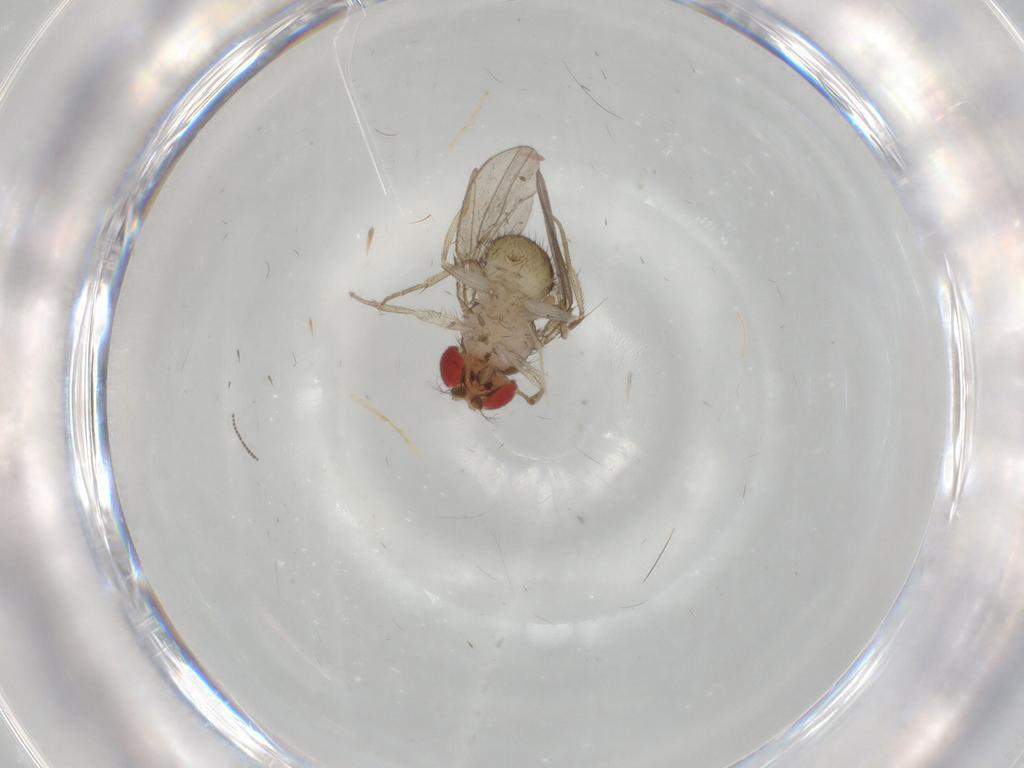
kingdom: Animalia
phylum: Arthropoda
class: Insecta
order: Diptera
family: Drosophilidae
